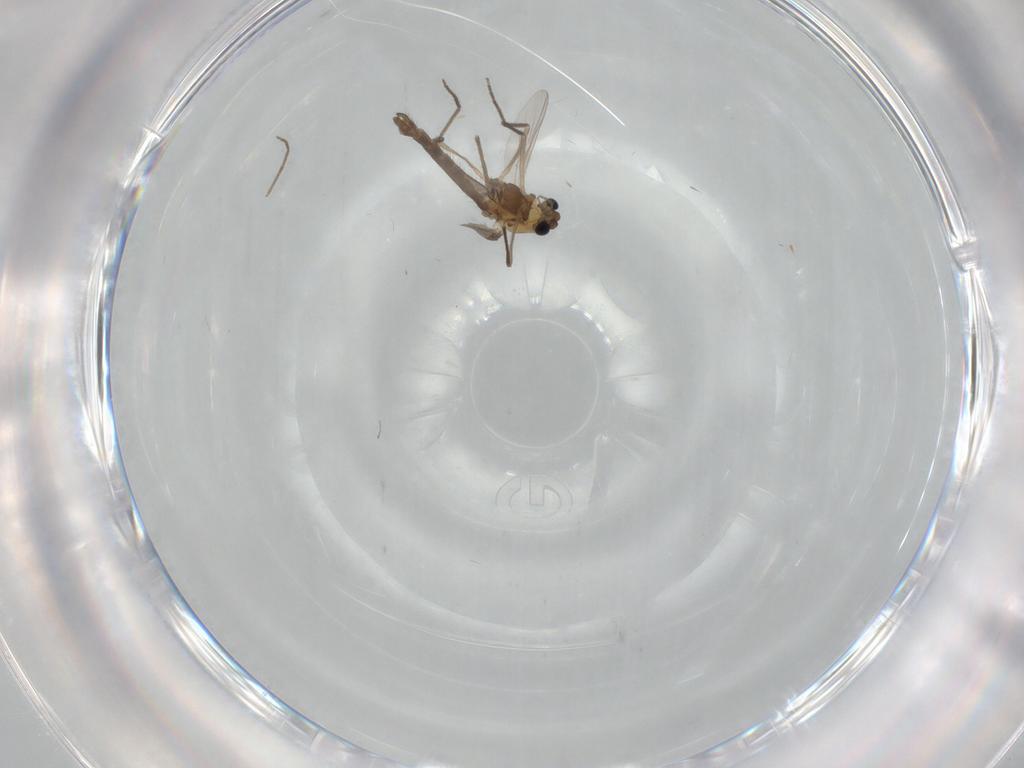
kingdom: Animalia
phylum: Arthropoda
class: Insecta
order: Diptera
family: Chironomidae
